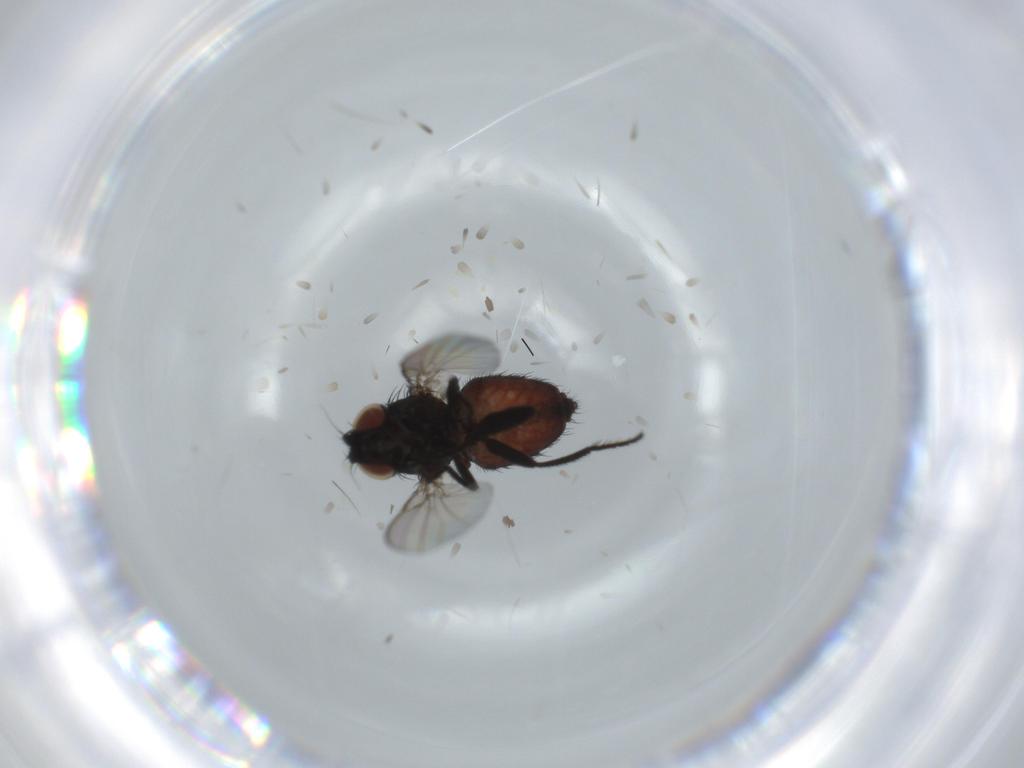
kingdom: Animalia
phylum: Arthropoda
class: Insecta
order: Diptera
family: Milichiidae
